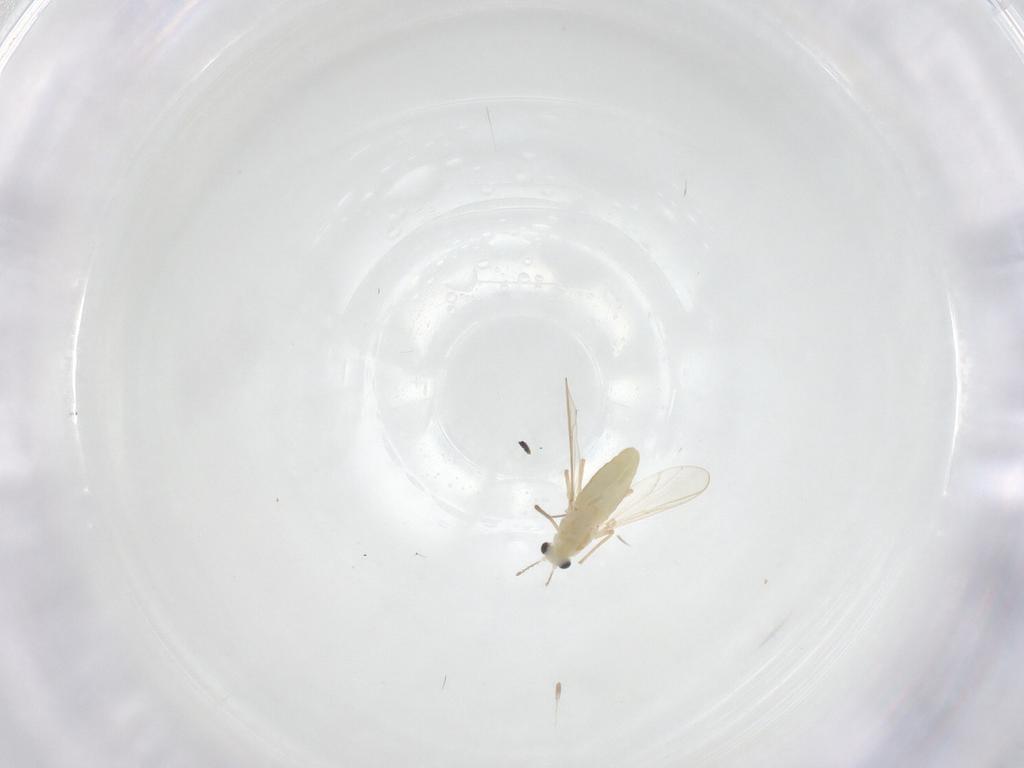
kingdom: Animalia
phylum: Arthropoda
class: Insecta
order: Diptera
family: Chironomidae
